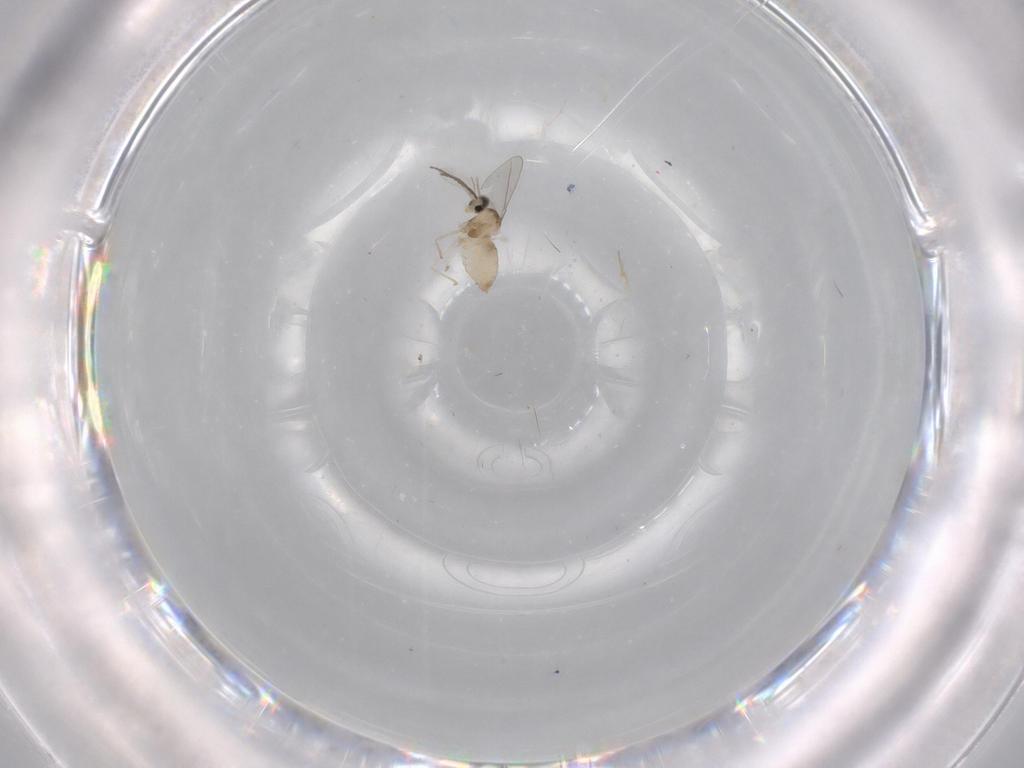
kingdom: Animalia
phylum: Arthropoda
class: Insecta
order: Diptera
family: Cecidomyiidae
